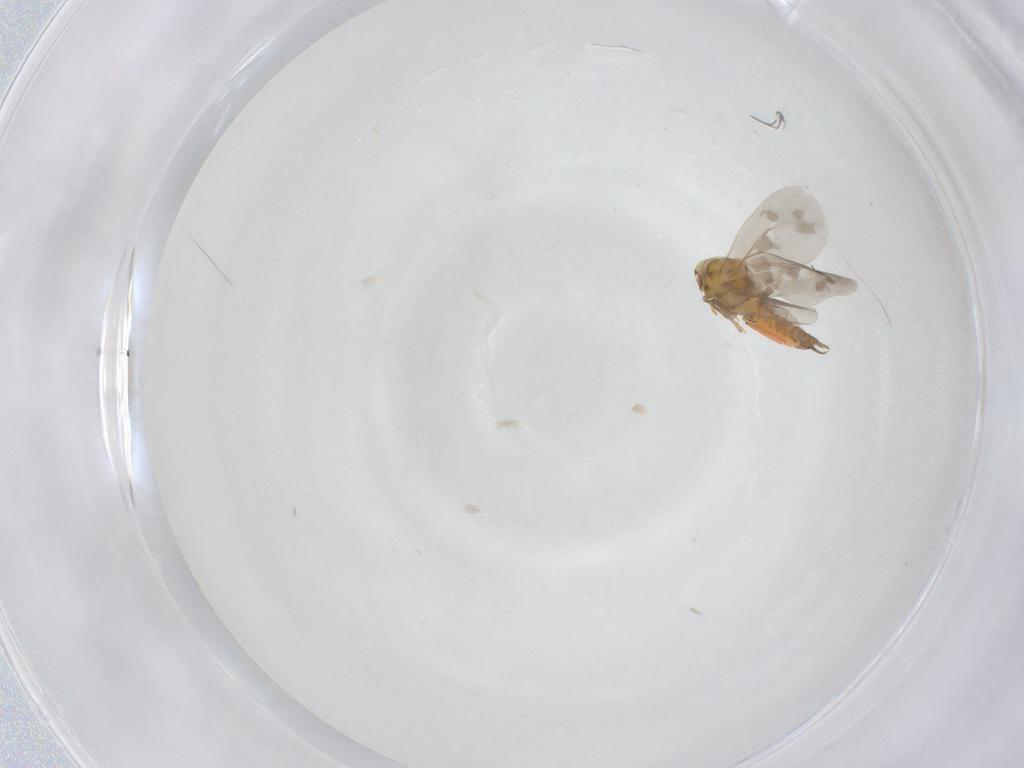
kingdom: Animalia
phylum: Arthropoda
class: Insecta
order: Hemiptera
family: Aleyrodidae
